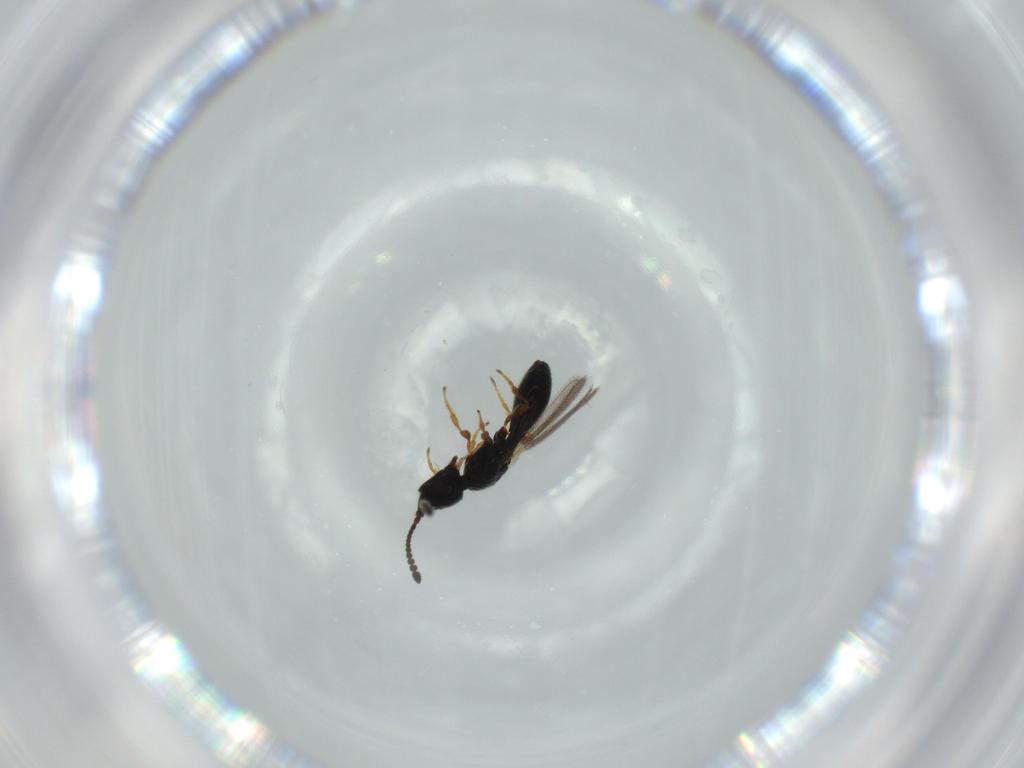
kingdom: Animalia
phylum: Arthropoda
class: Insecta
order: Hymenoptera
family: Diapriidae
